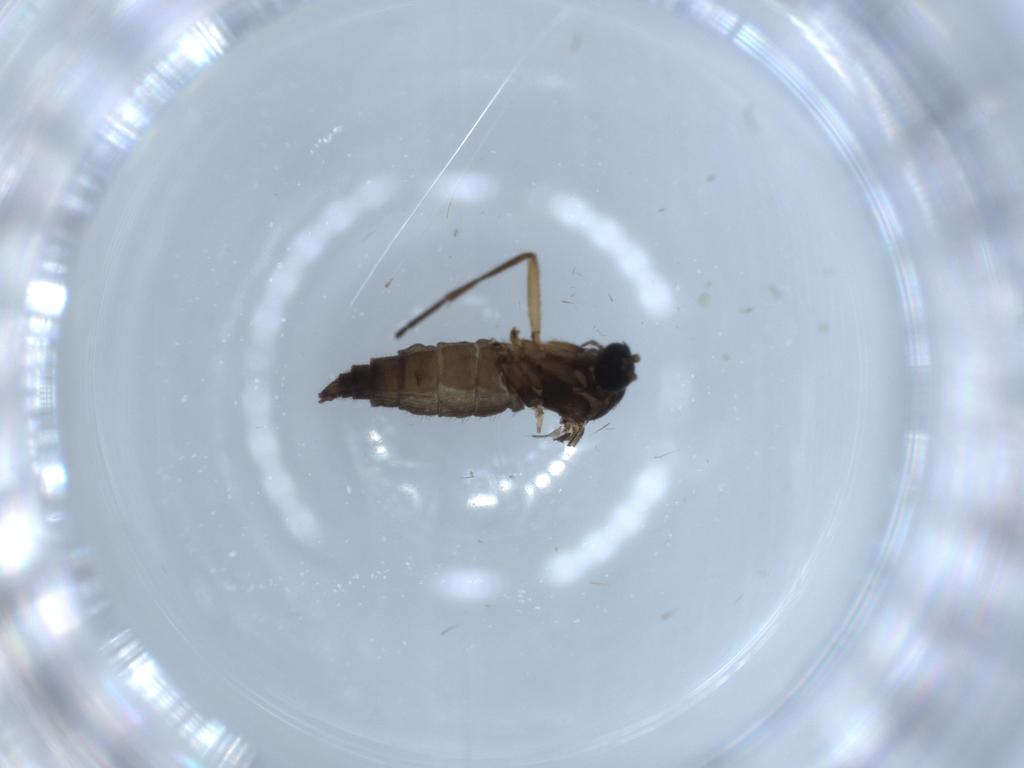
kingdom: Animalia
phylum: Arthropoda
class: Insecta
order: Diptera
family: Sciaridae
